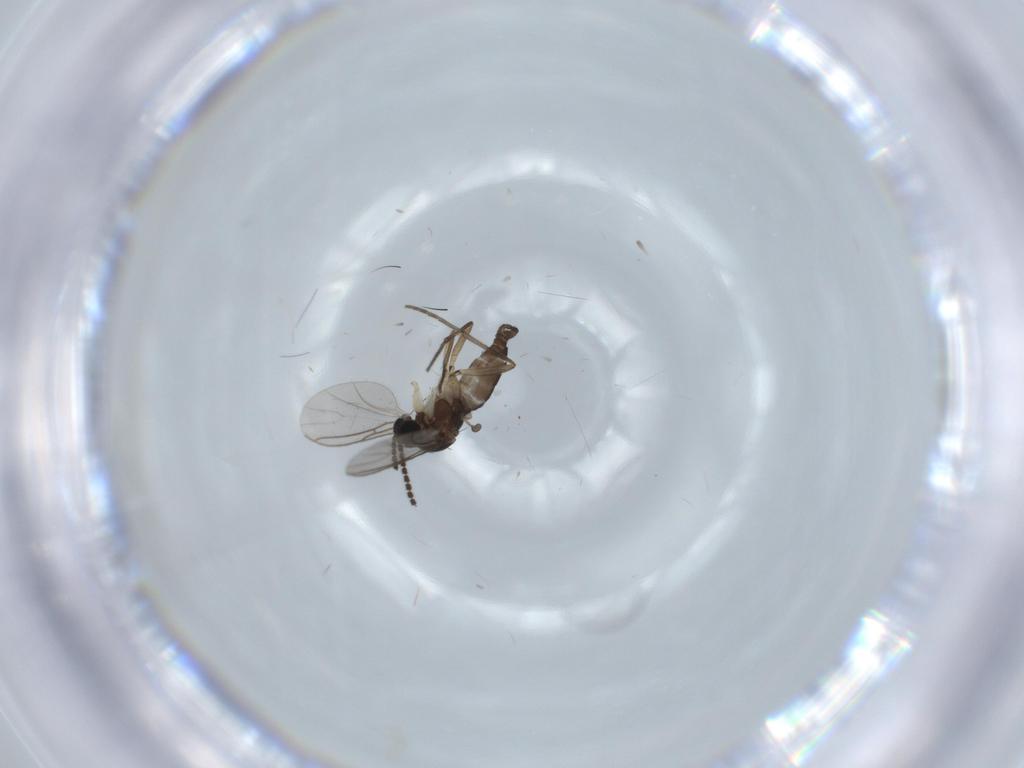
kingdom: Animalia
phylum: Arthropoda
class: Insecta
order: Diptera
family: Sciaridae
